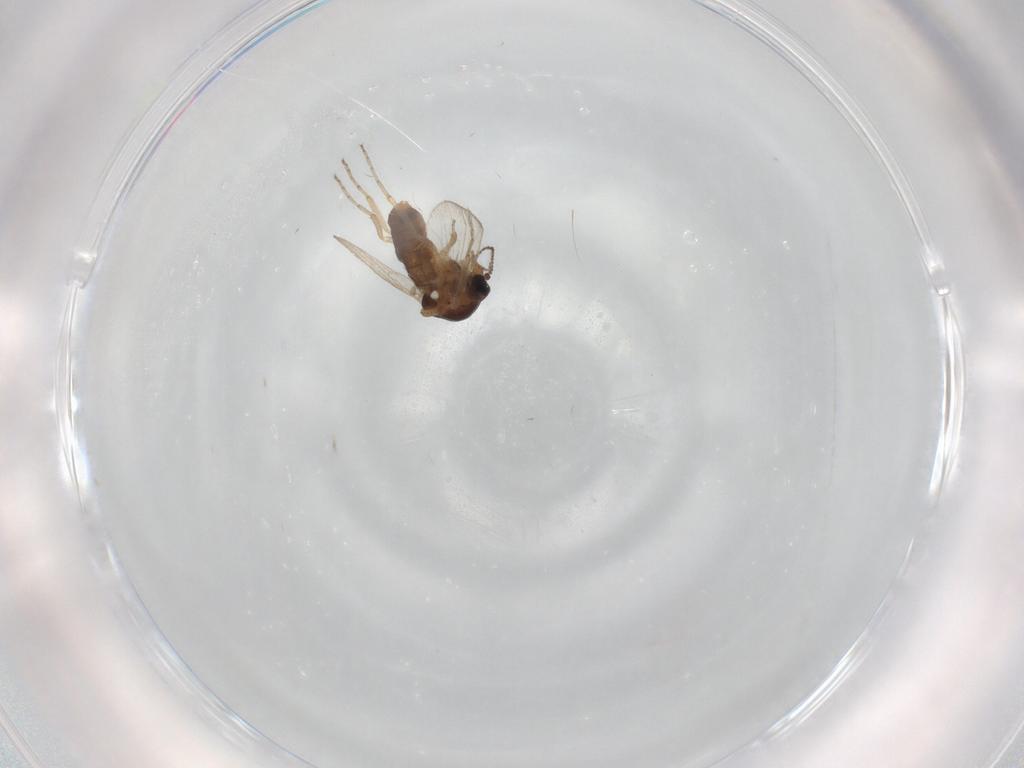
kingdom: Animalia
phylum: Arthropoda
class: Insecta
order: Diptera
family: Ceratopogonidae
